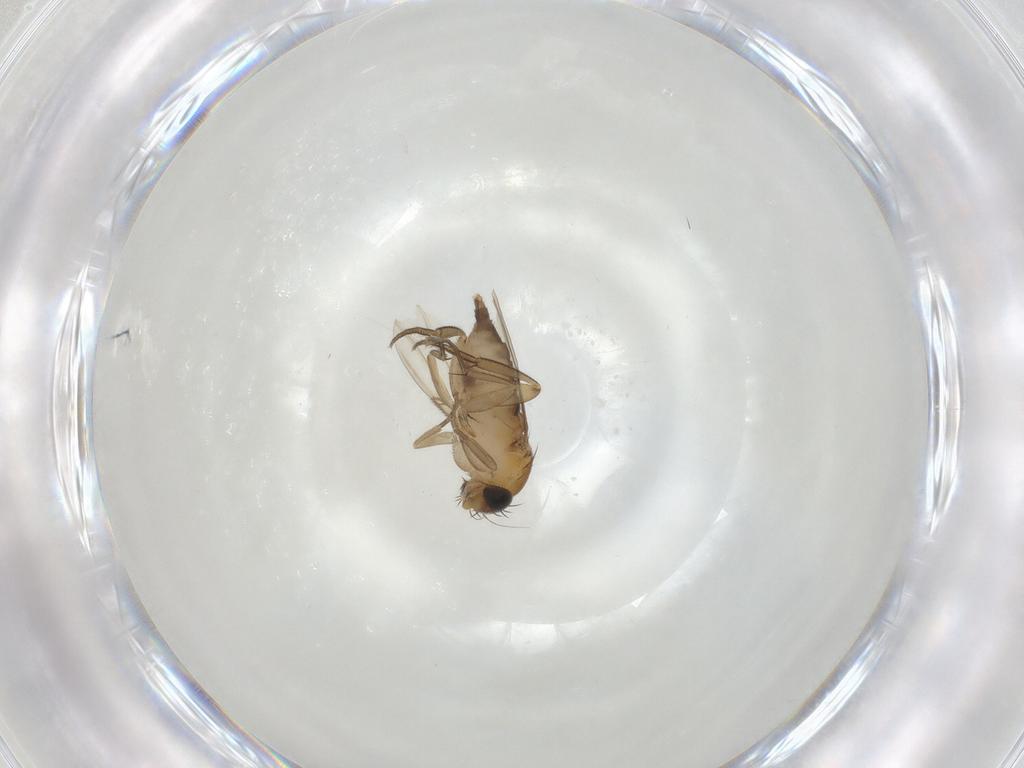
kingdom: Animalia
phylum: Arthropoda
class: Insecta
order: Diptera
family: Phoridae
